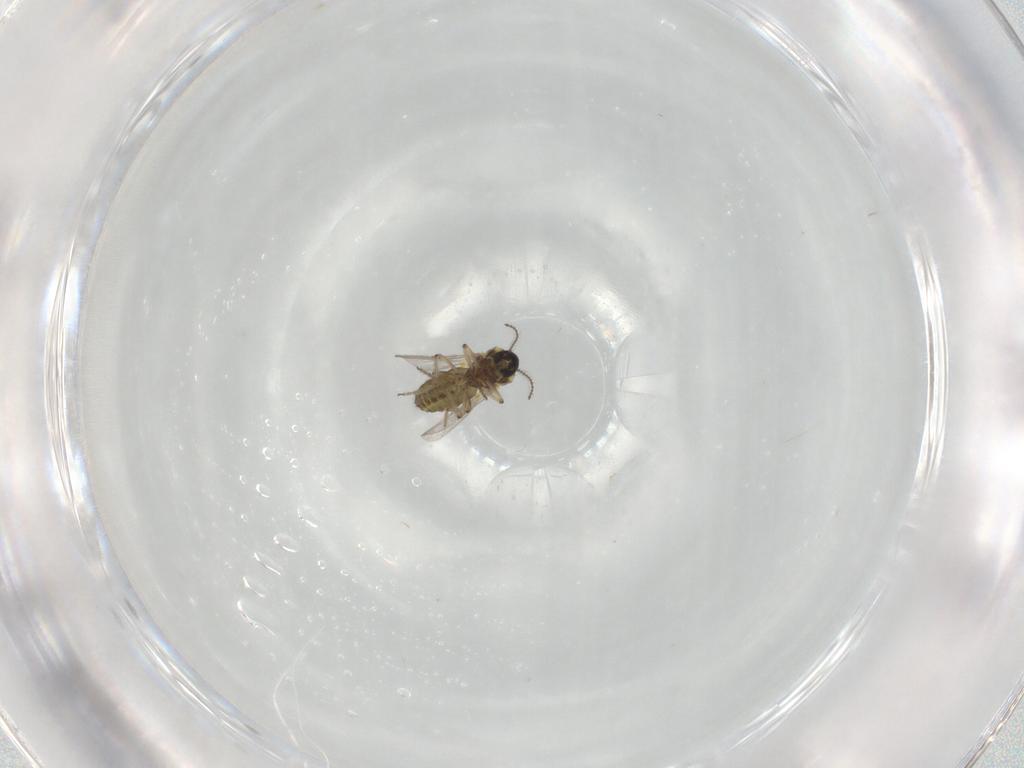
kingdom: Animalia
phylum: Arthropoda
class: Insecta
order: Diptera
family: Ceratopogonidae
